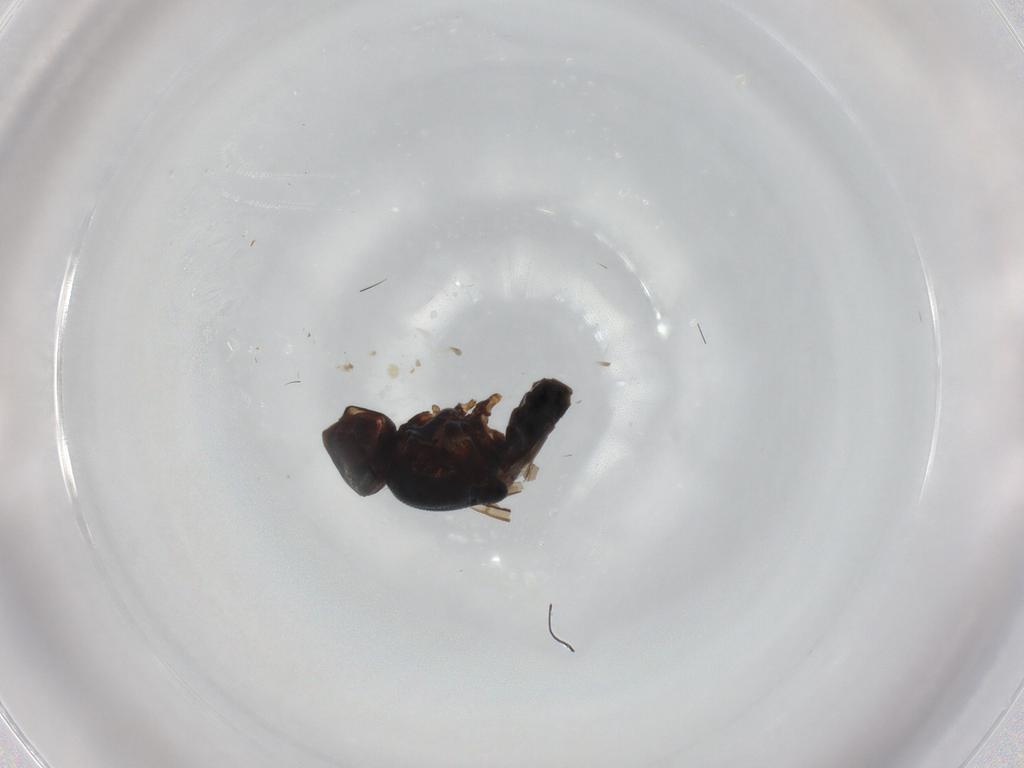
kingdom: Animalia
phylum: Arthropoda
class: Insecta
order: Diptera
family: Chloropidae
